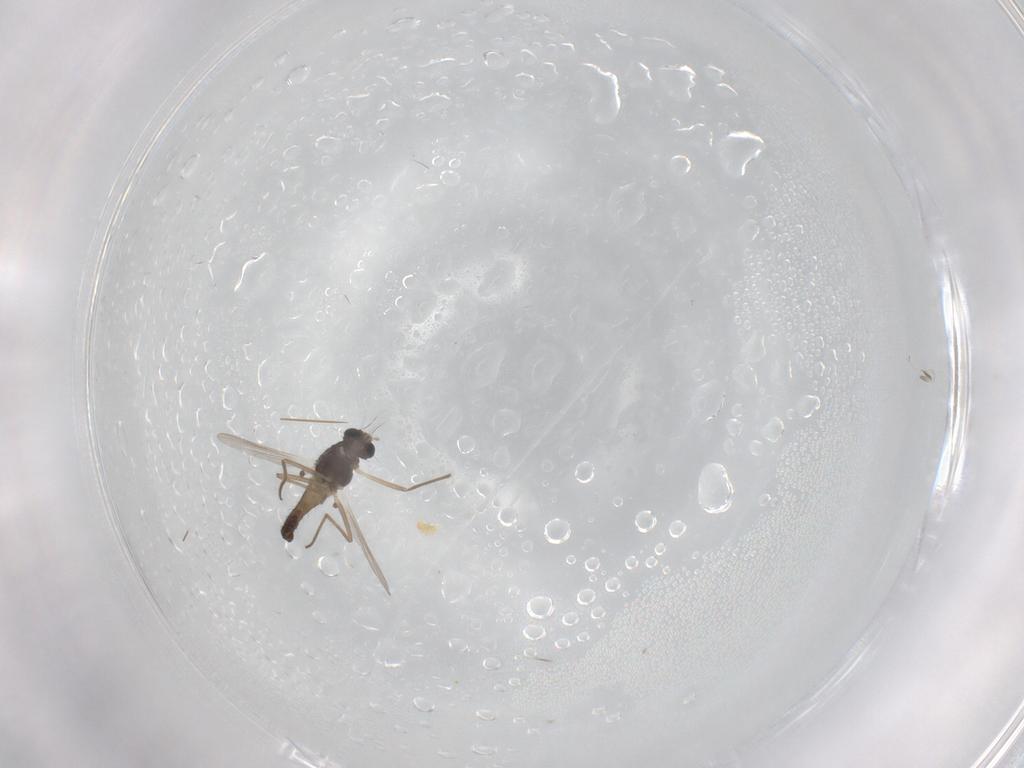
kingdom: Animalia
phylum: Arthropoda
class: Insecta
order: Diptera
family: Chironomidae
